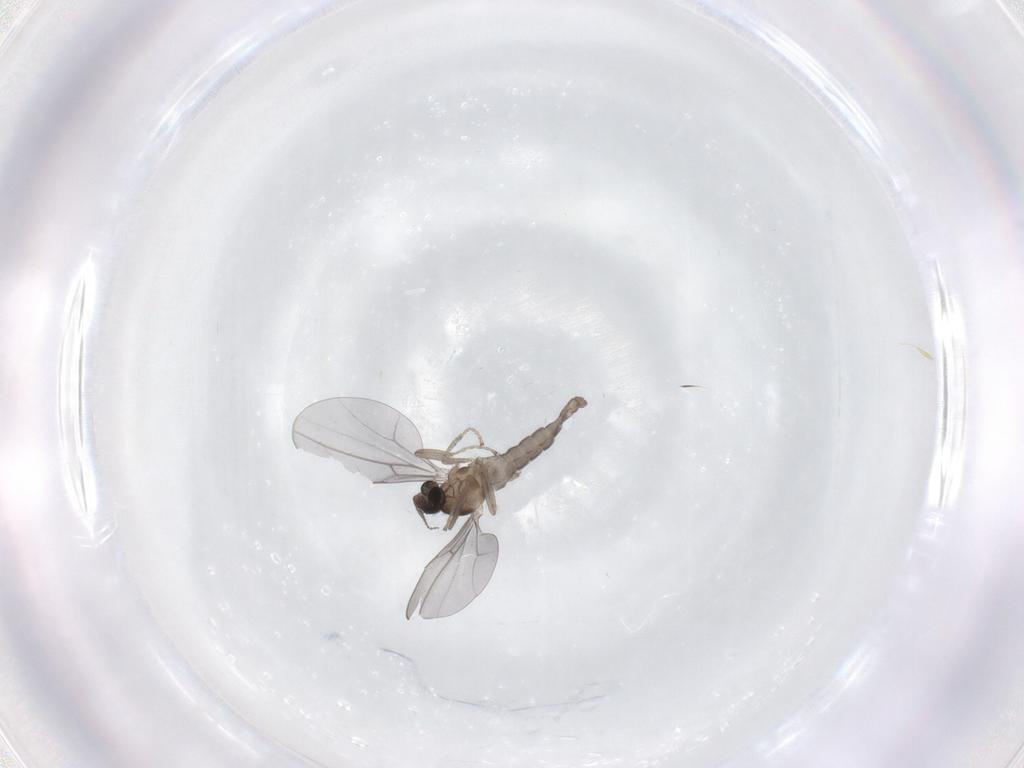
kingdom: Animalia
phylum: Arthropoda
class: Insecta
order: Diptera
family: Cecidomyiidae
